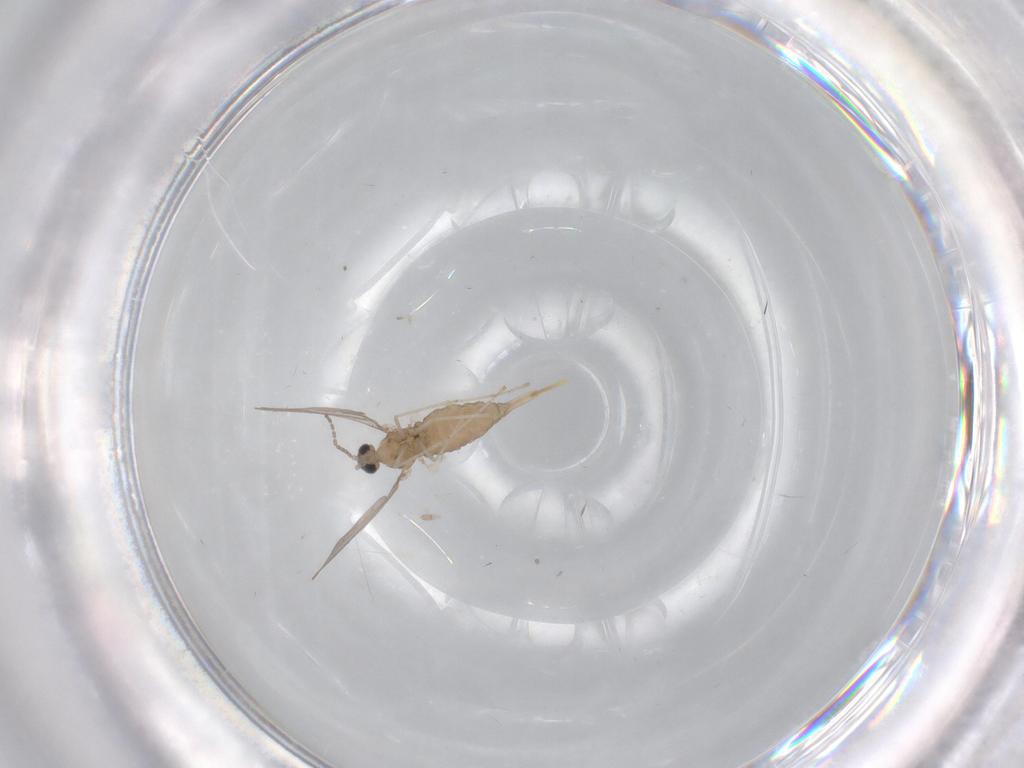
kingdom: Animalia
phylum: Arthropoda
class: Insecta
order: Diptera
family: Cecidomyiidae
